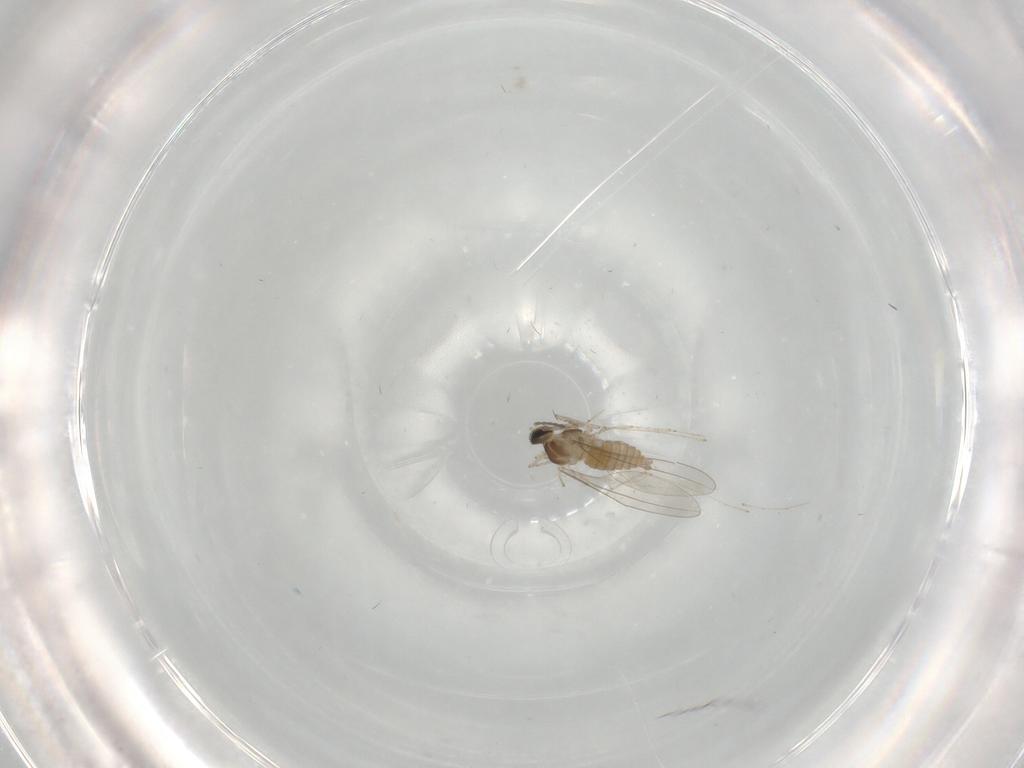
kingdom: Animalia
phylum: Arthropoda
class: Insecta
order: Diptera
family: Cecidomyiidae
